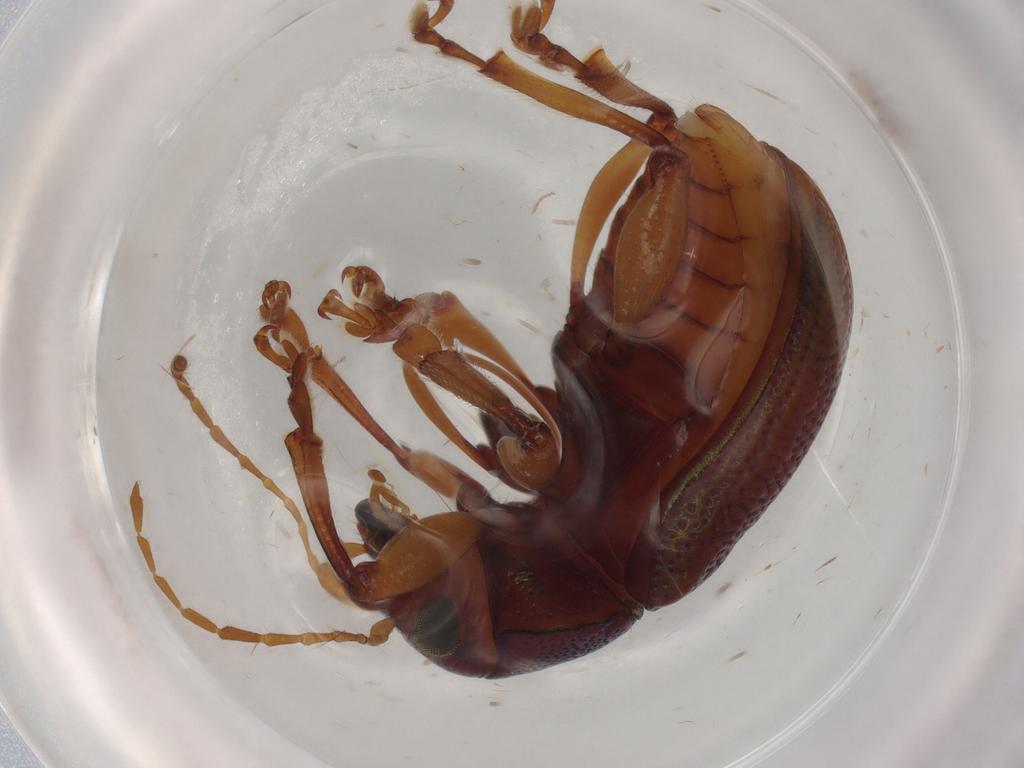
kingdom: Animalia
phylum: Arthropoda
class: Insecta
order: Coleoptera
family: Chrysomelidae
